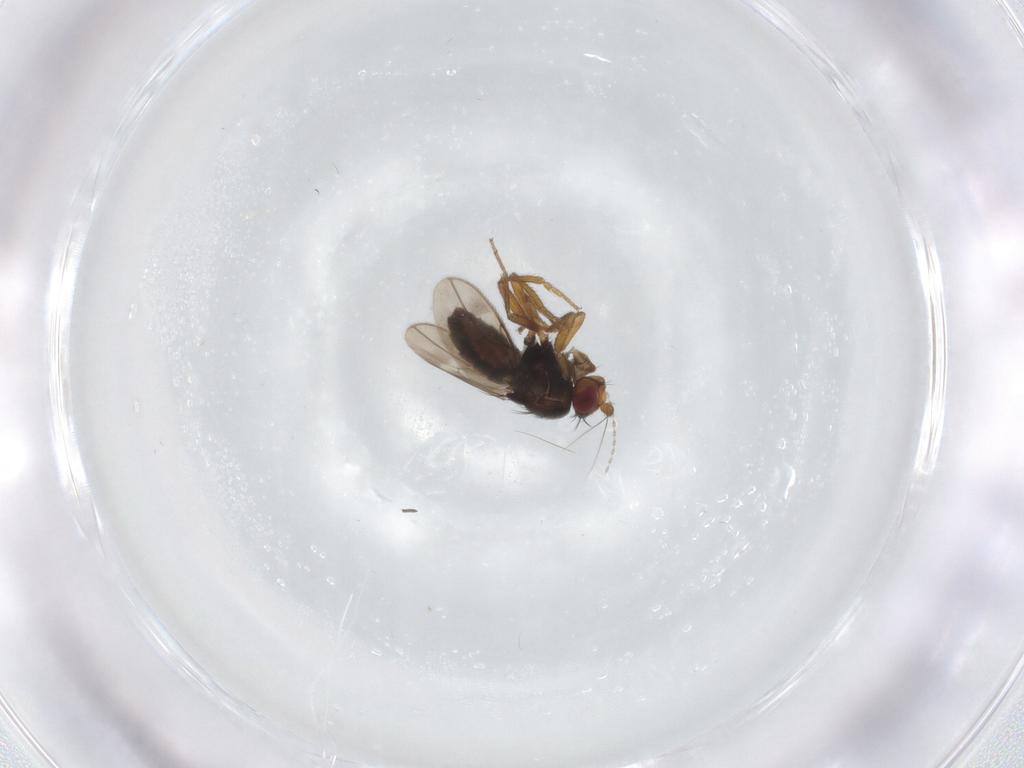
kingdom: Animalia
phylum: Arthropoda
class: Insecta
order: Diptera
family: Sphaeroceridae
